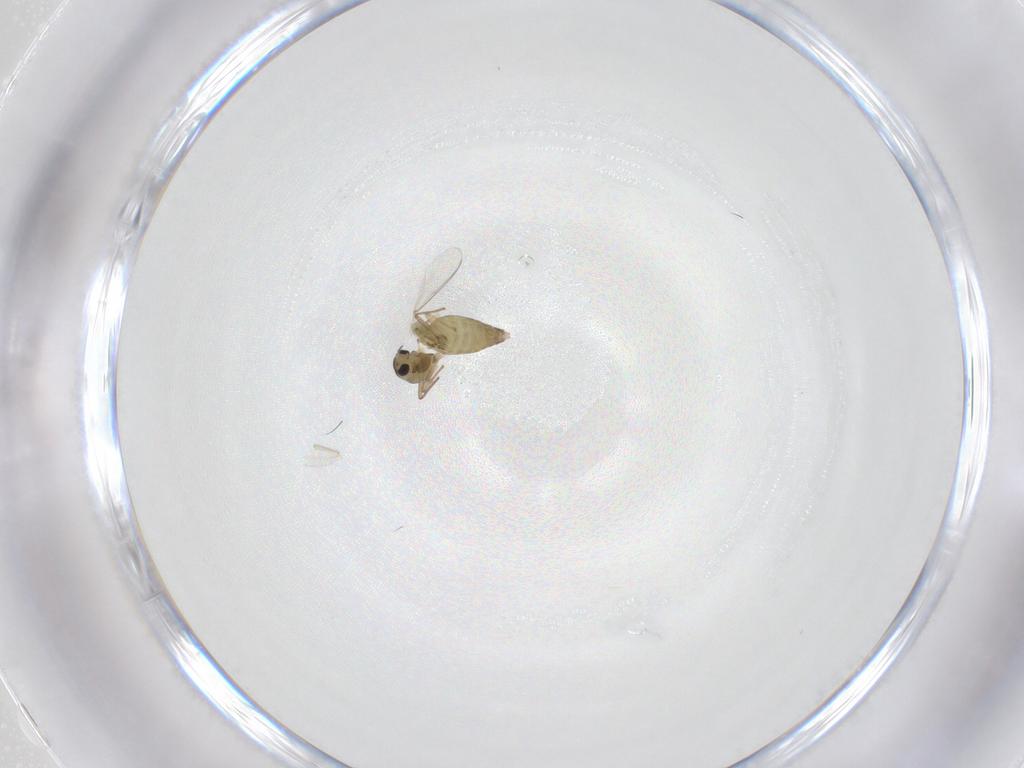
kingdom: Animalia
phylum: Arthropoda
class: Insecta
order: Diptera
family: Chironomidae
